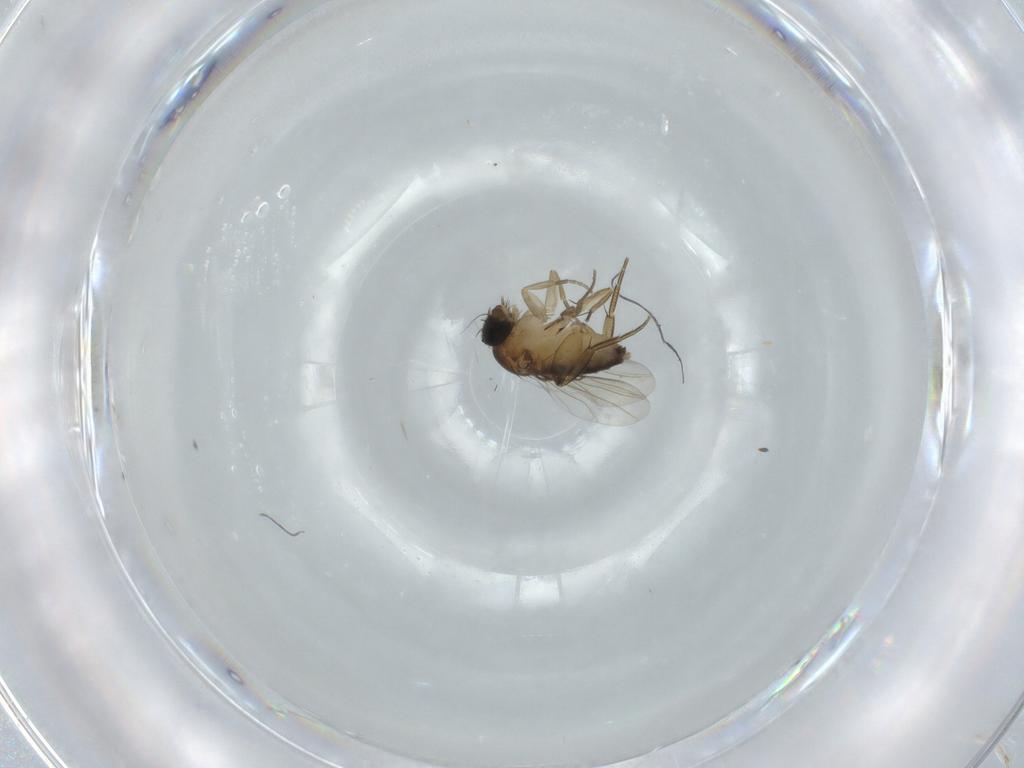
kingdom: Animalia
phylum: Arthropoda
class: Insecta
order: Diptera
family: Phoridae
